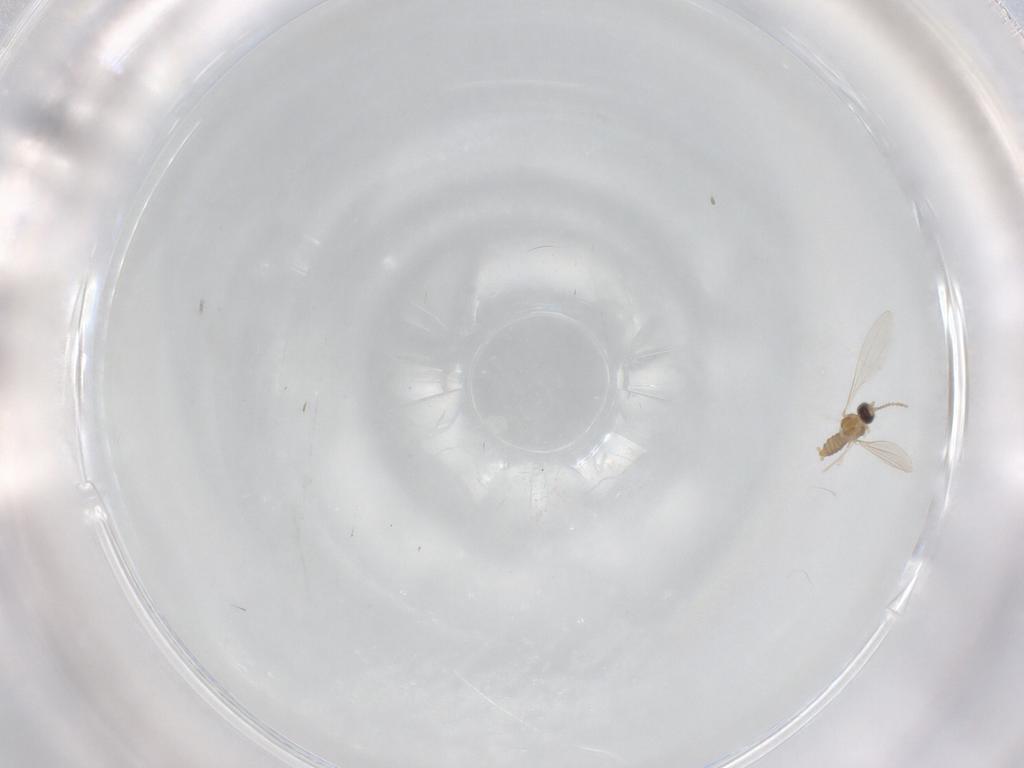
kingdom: Animalia
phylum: Arthropoda
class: Insecta
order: Diptera
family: Cecidomyiidae
